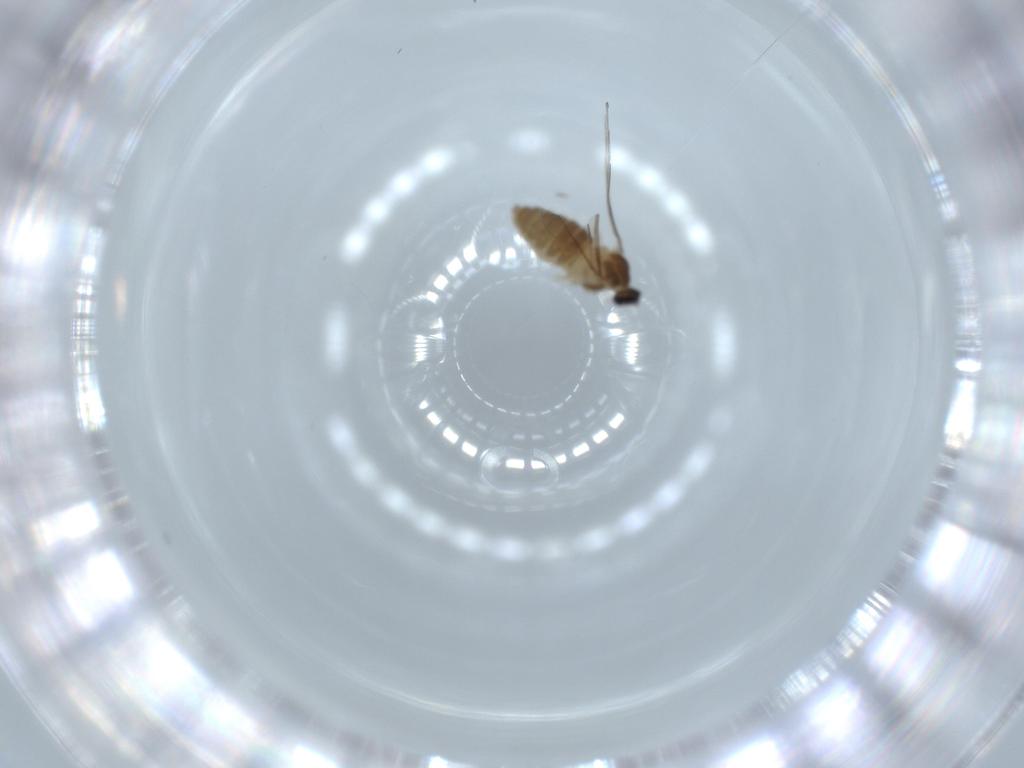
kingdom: Animalia
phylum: Arthropoda
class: Insecta
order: Diptera
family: Cecidomyiidae
